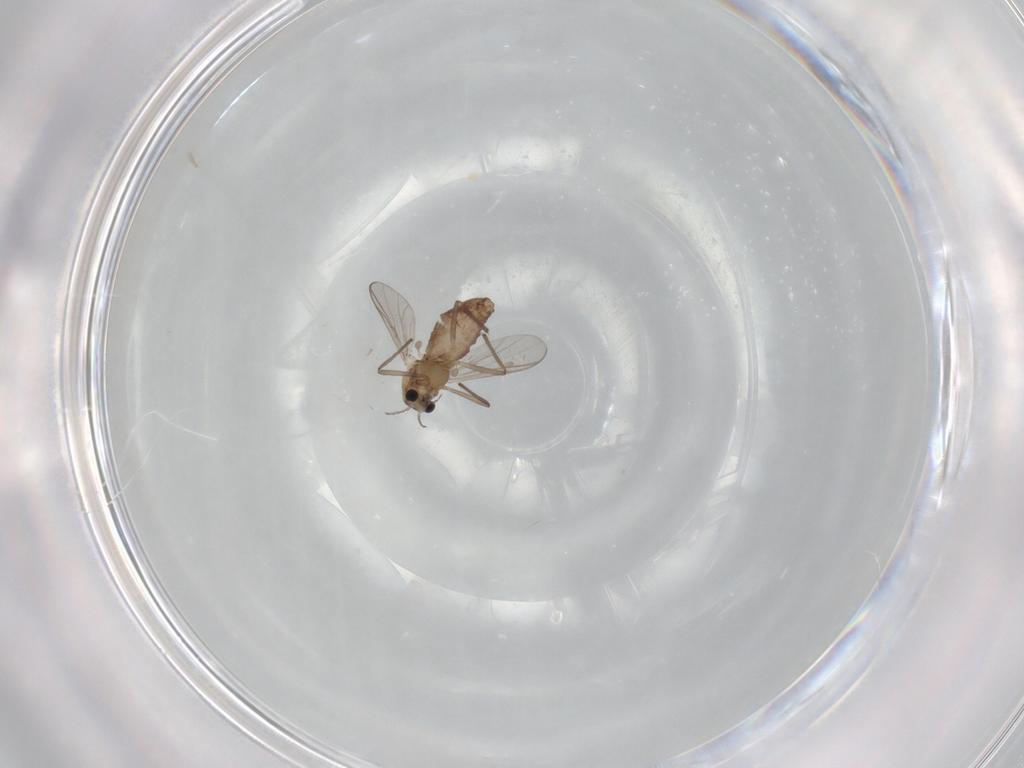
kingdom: Animalia
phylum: Arthropoda
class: Insecta
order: Diptera
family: Chironomidae
